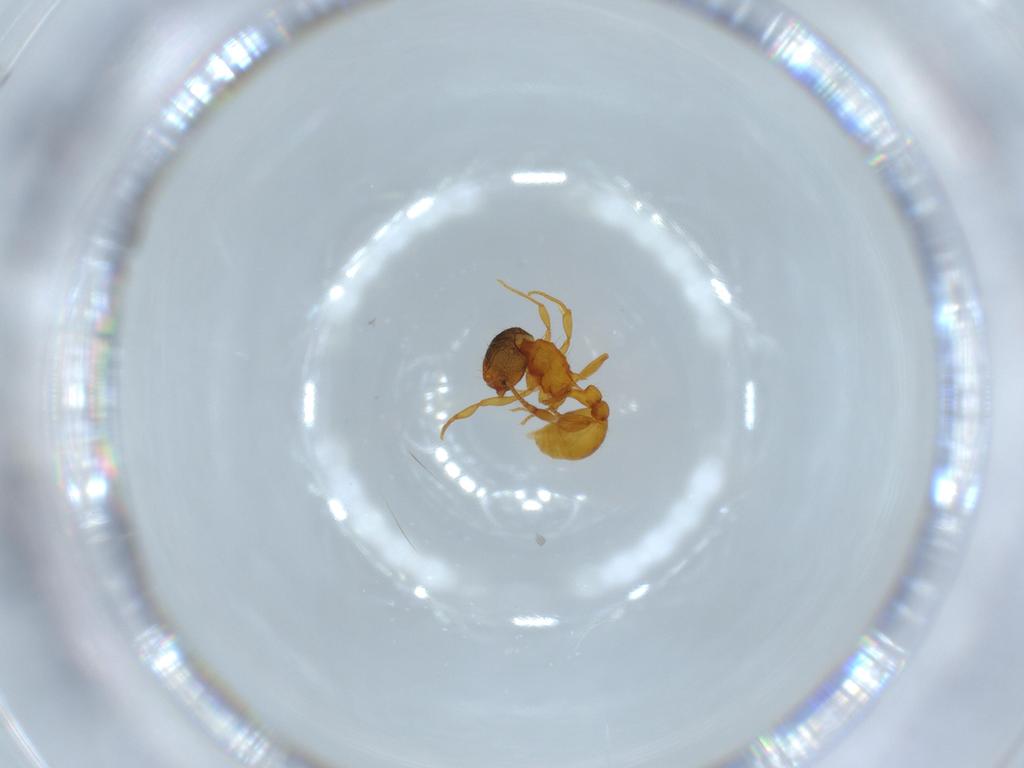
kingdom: Animalia
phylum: Arthropoda
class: Insecta
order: Hymenoptera
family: Formicidae
